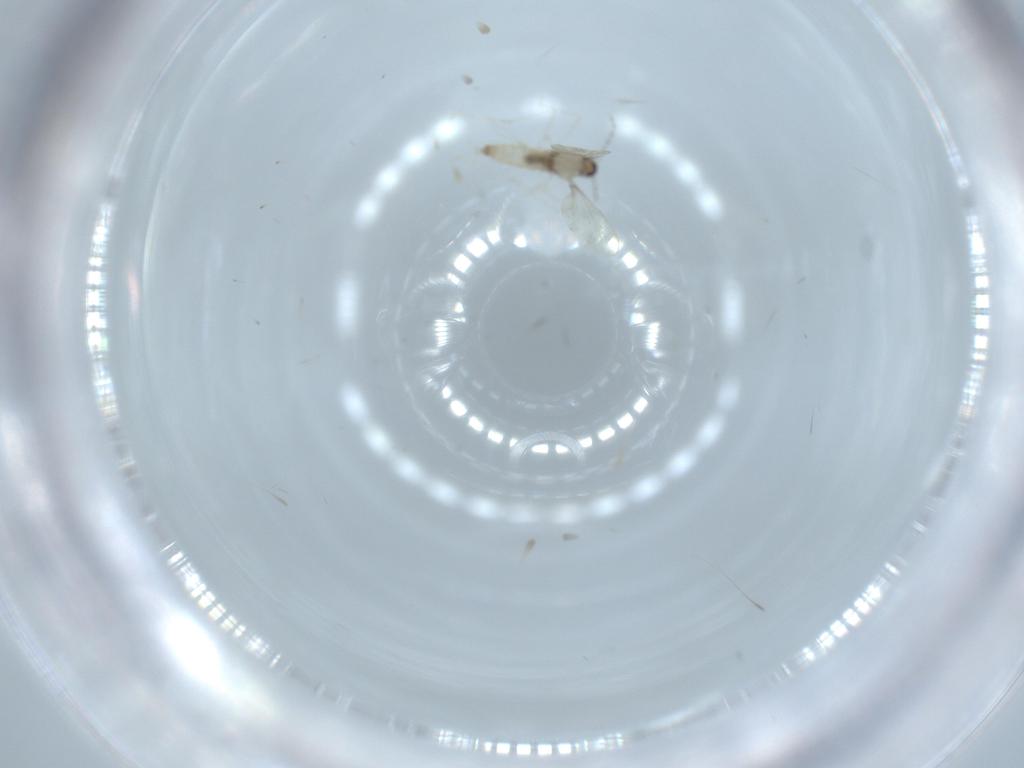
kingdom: Animalia
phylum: Arthropoda
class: Insecta
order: Diptera
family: Cecidomyiidae
